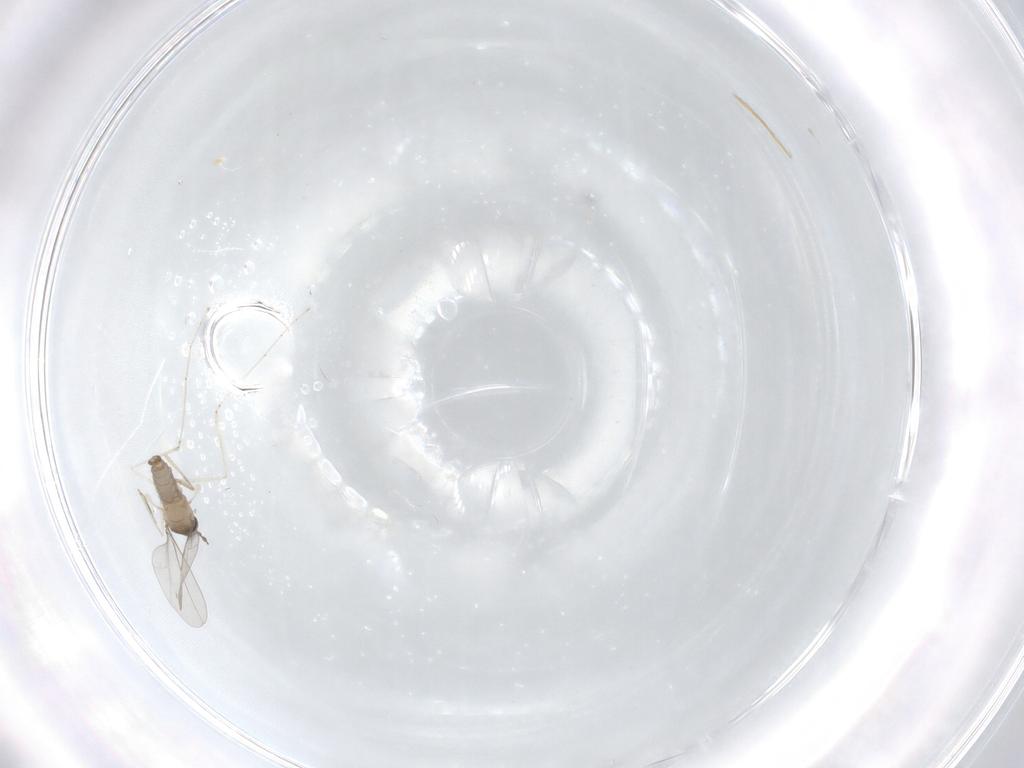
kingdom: Animalia
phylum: Arthropoda
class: Insecta
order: Diptera
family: Cecidomyiidae
